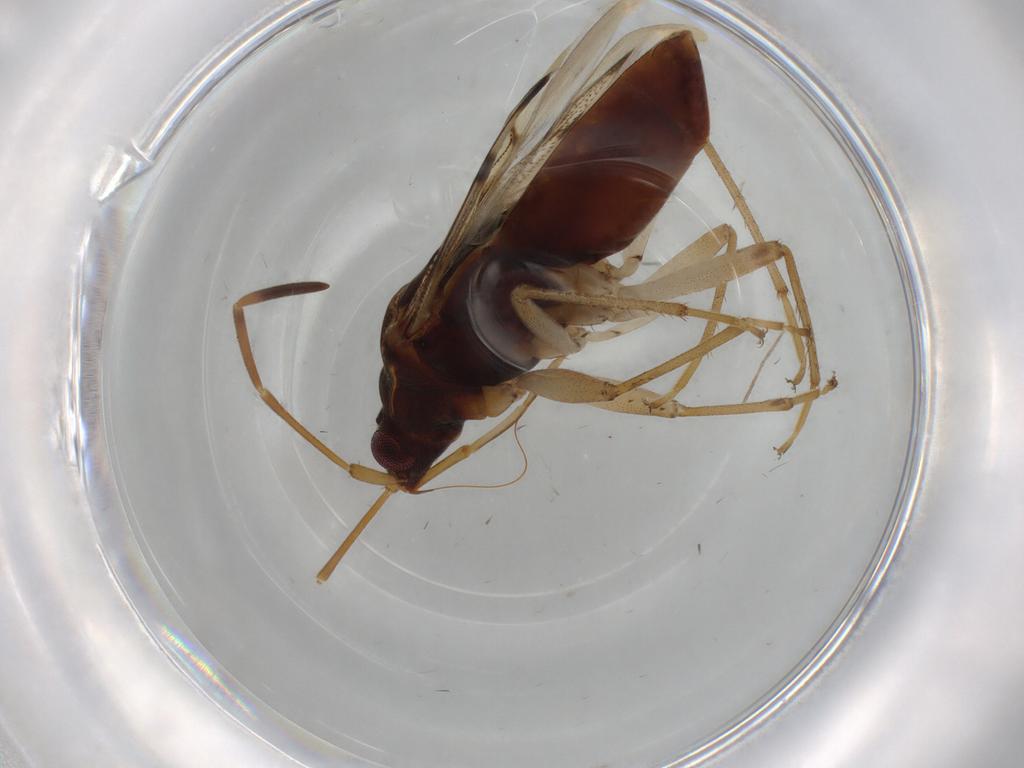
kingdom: Animalia
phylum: Arthropoda
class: Insecta
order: Hemiptera
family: Rhyparochromidae
